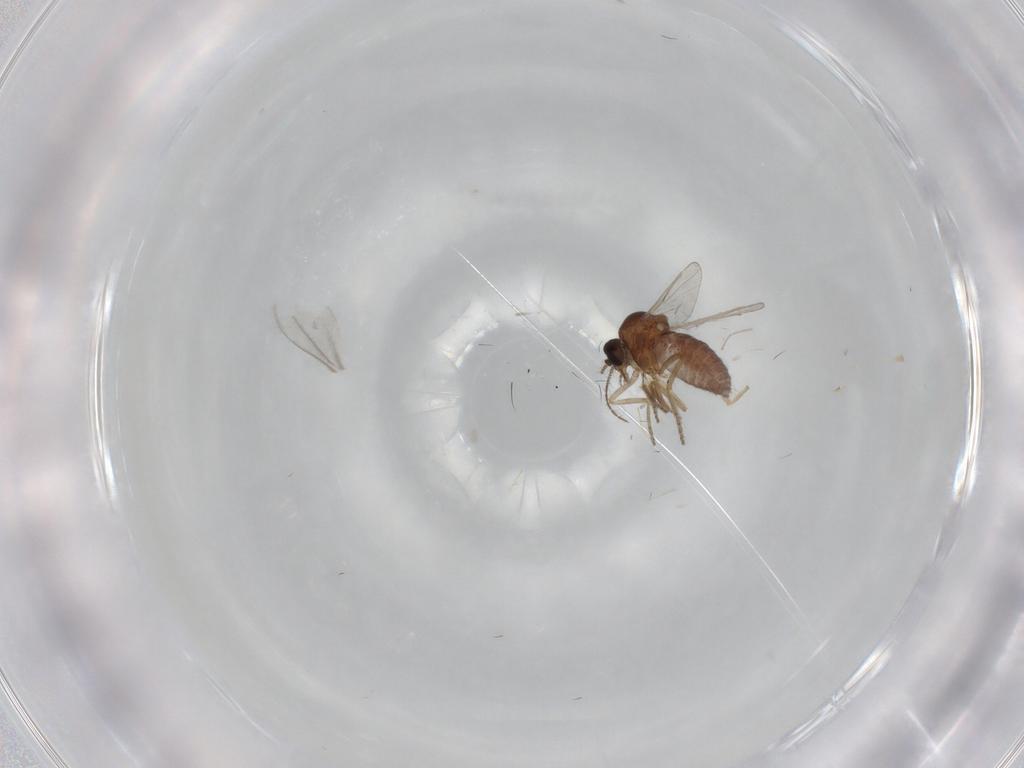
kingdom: Animalia
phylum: Arthropoda
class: Insecta
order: Diptera
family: Ceratopogonidae
